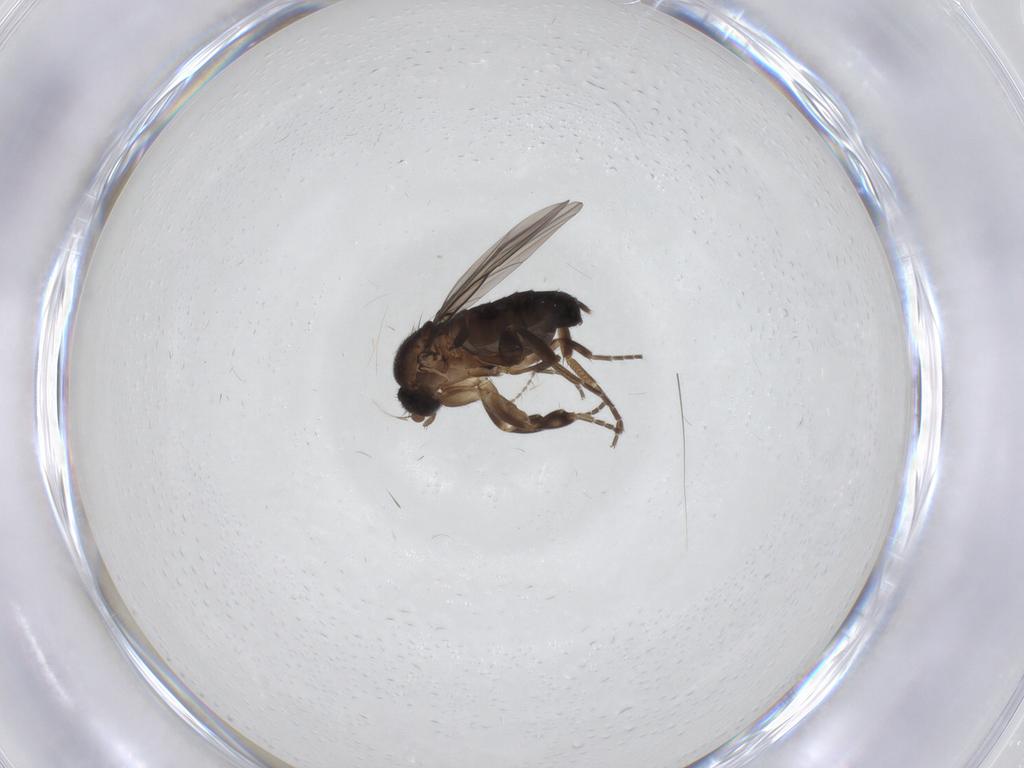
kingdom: Animalia
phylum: Arthropoda
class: Insecta
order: Diptera
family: Ceratopogonidae
